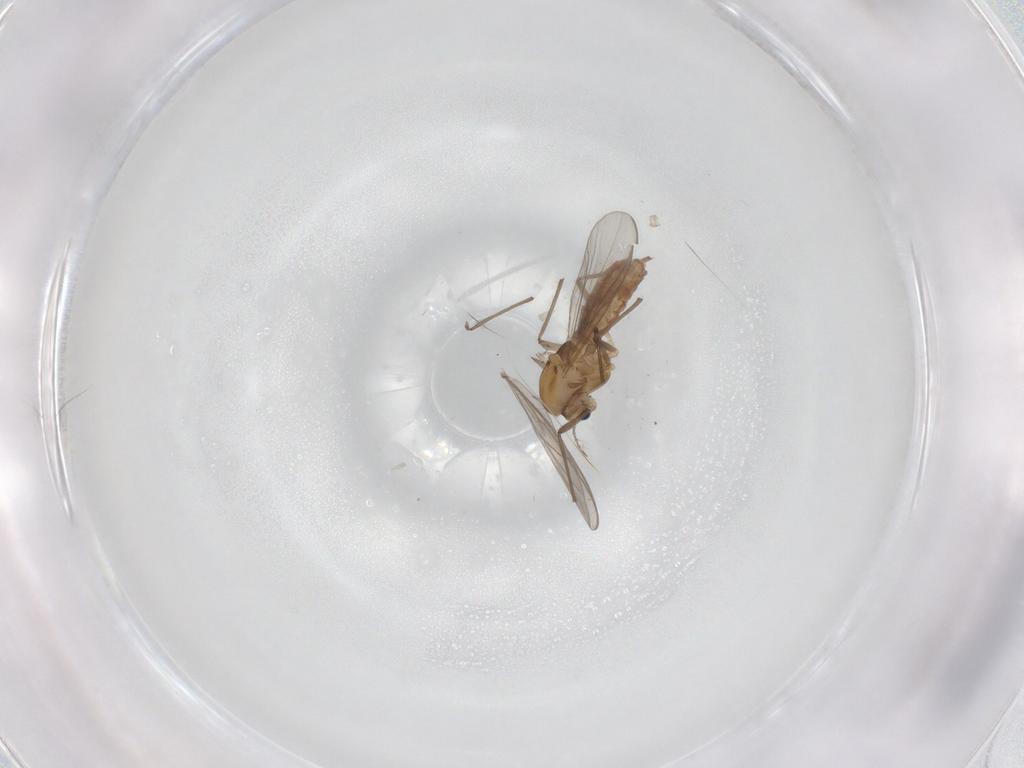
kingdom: Animalia
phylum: Arthropoda
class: Insecta
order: Diptera
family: Chironomidae
